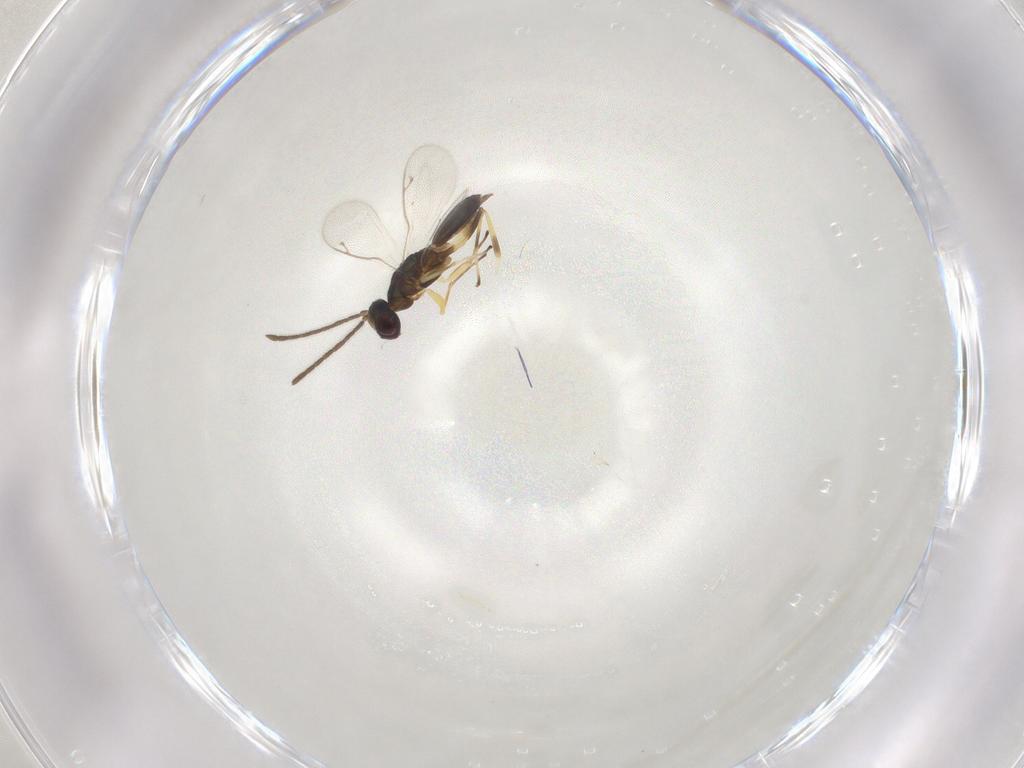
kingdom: Animalia
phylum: Arthropoda
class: Insecta
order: Hymenoptera
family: Eupelmidae
